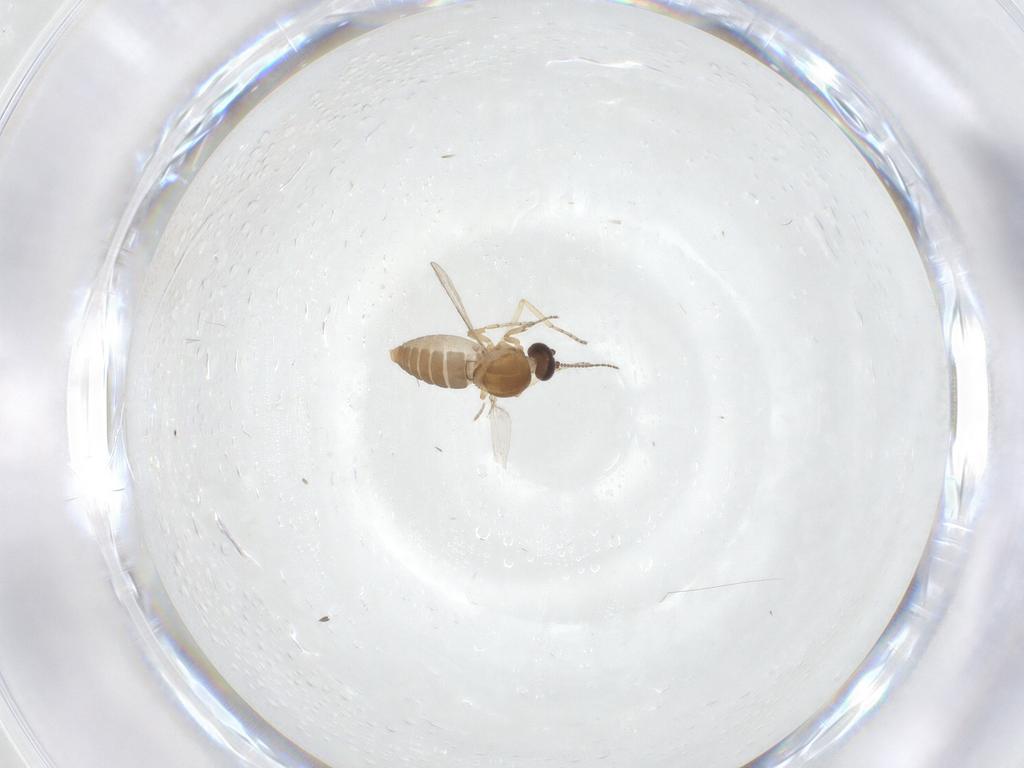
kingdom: Animalia
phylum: Arthropoda
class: Insecta
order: Diptera
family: Ceratopogonidae
